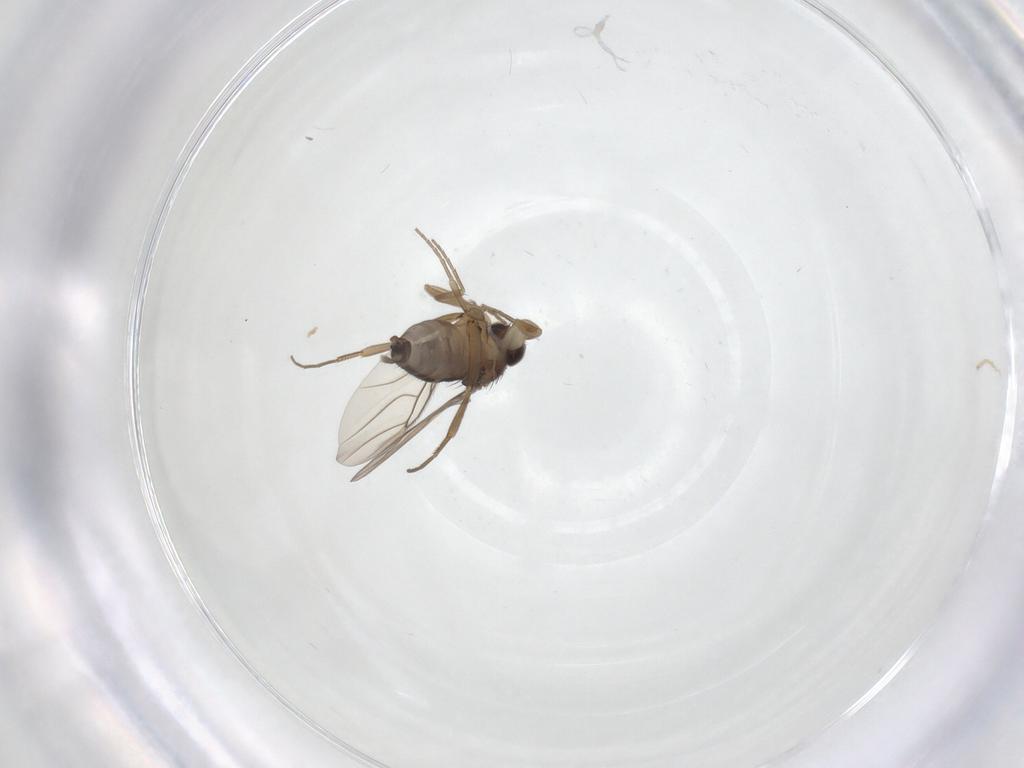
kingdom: Animalia
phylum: Arthropoda
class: Insecta
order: Diptera
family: Phoridae
